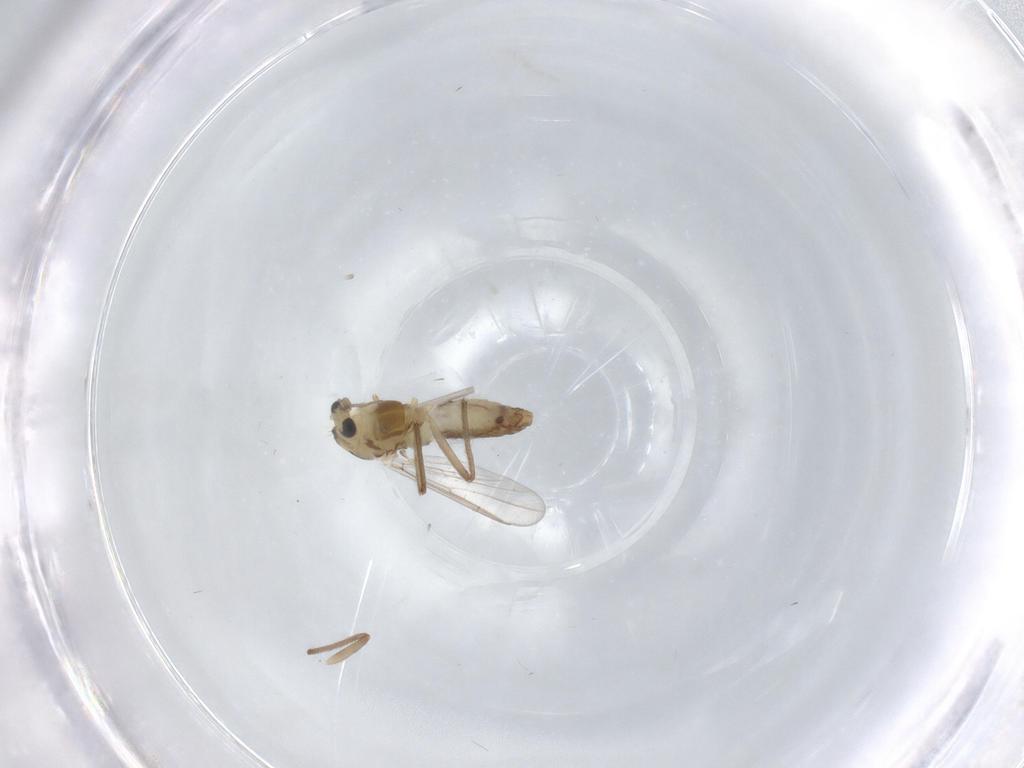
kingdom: Animalia
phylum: Arthropoda
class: Insecta
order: Diptera
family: Chironomidae
